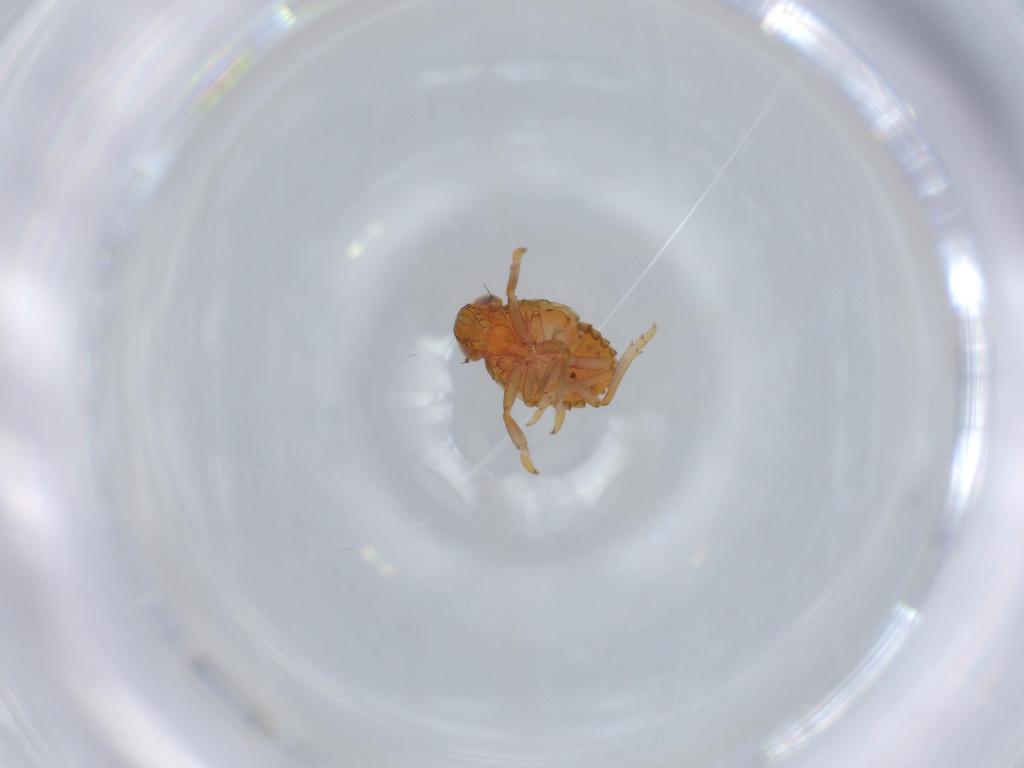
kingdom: Animalia
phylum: Arthropoda
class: Insecta
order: Hemiptera
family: Issidae
